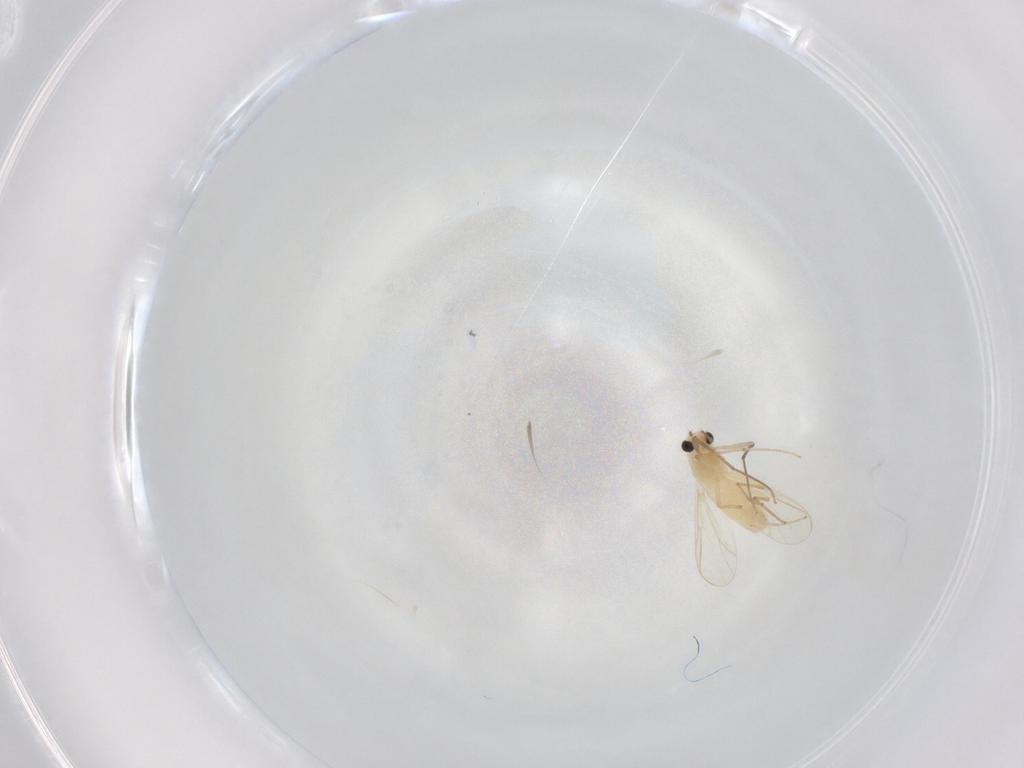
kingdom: Animalia
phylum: Arthropoda
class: Insecta
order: Diptera
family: Chironomidae
